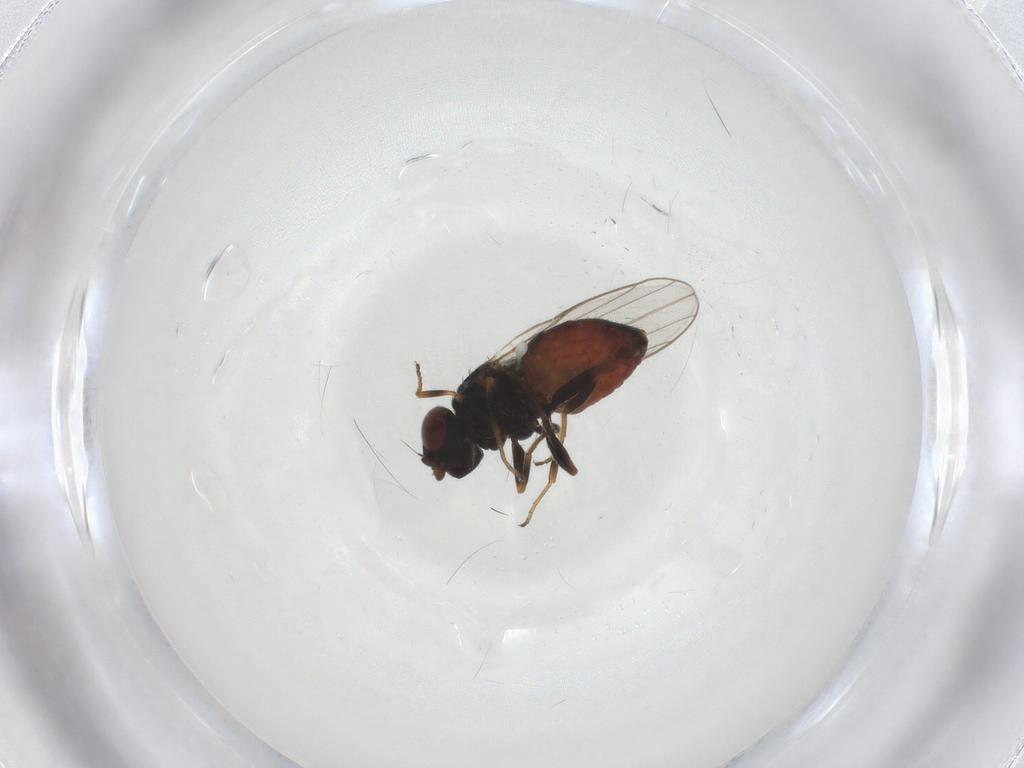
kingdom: Animalia
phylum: Arthropoda
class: Insecta
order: Diptera
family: Chloropidae
